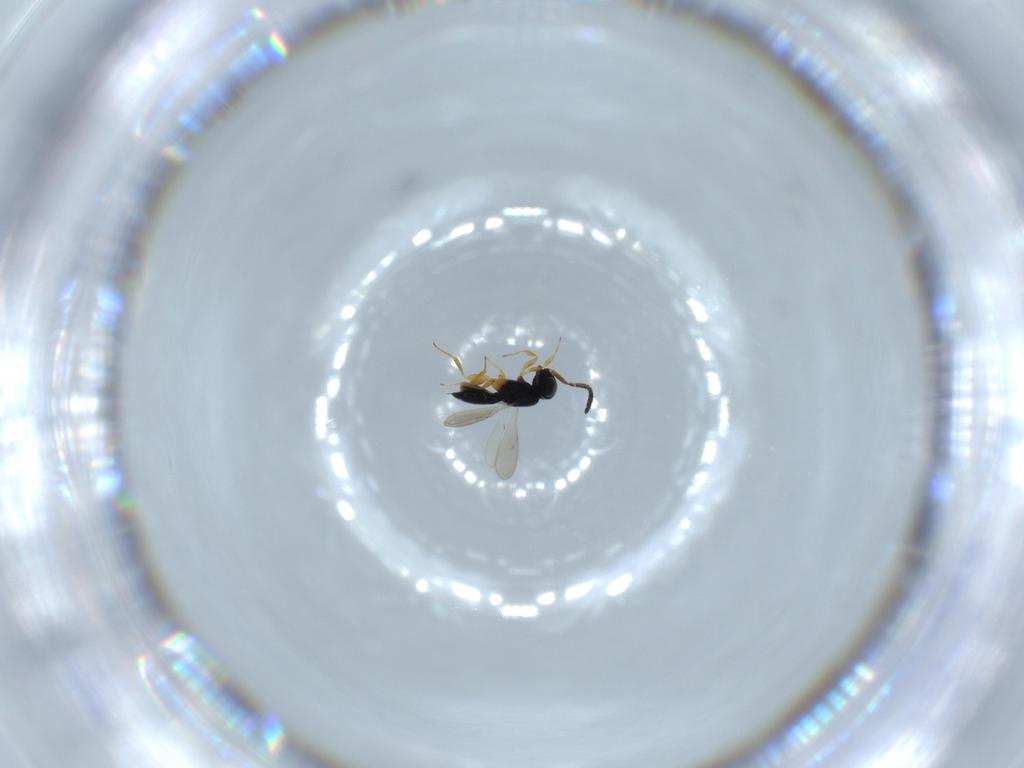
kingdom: Animalia
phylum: Arthropoda
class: Insecta
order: Hymenoptera
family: Scelionidae
